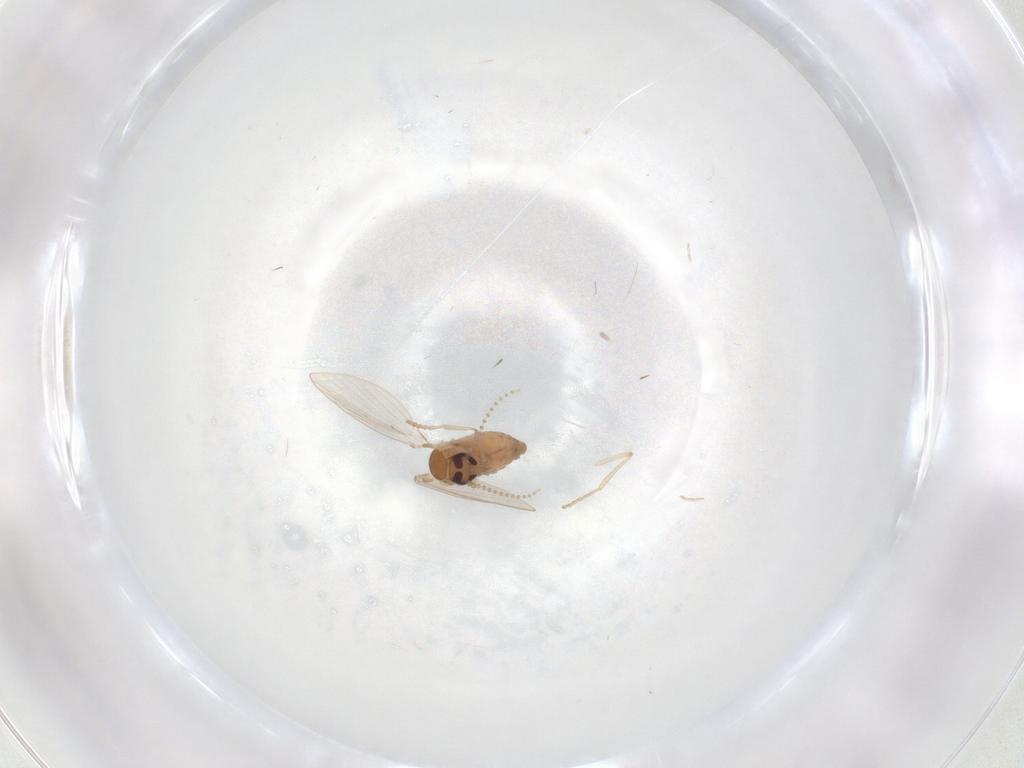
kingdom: Animalia
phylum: Arthropoda
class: Insecta
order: Diptera
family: Psychodidae
